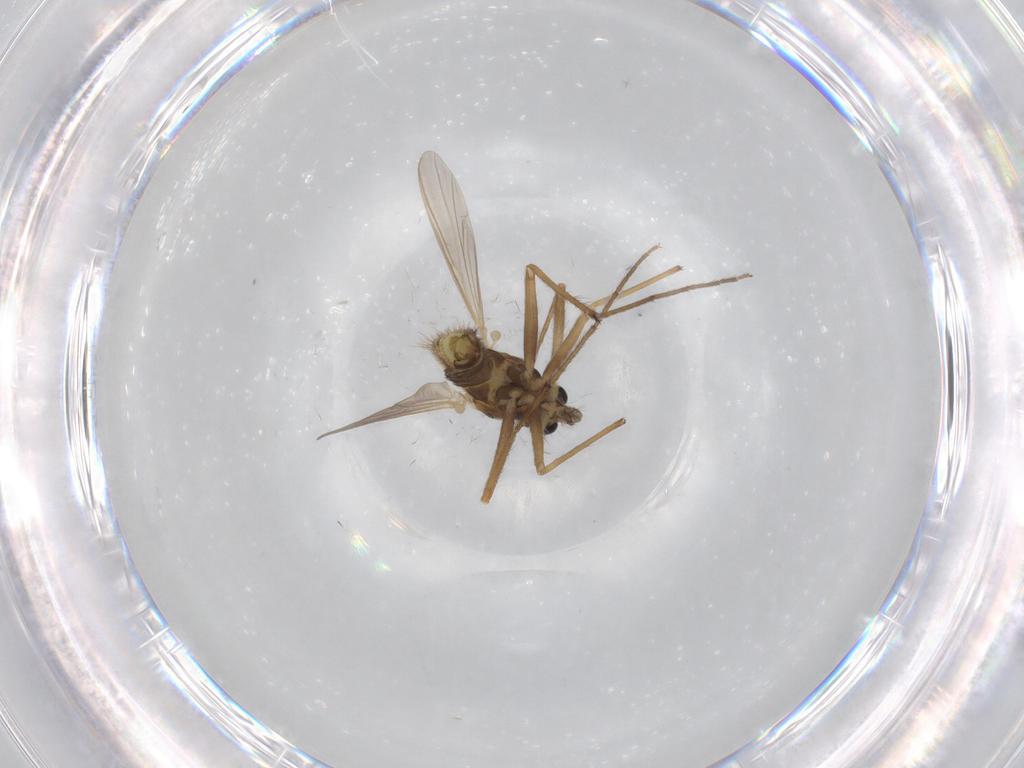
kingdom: Animalia
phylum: Arthropoda
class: Insecta
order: Diptera
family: Chironomidae
